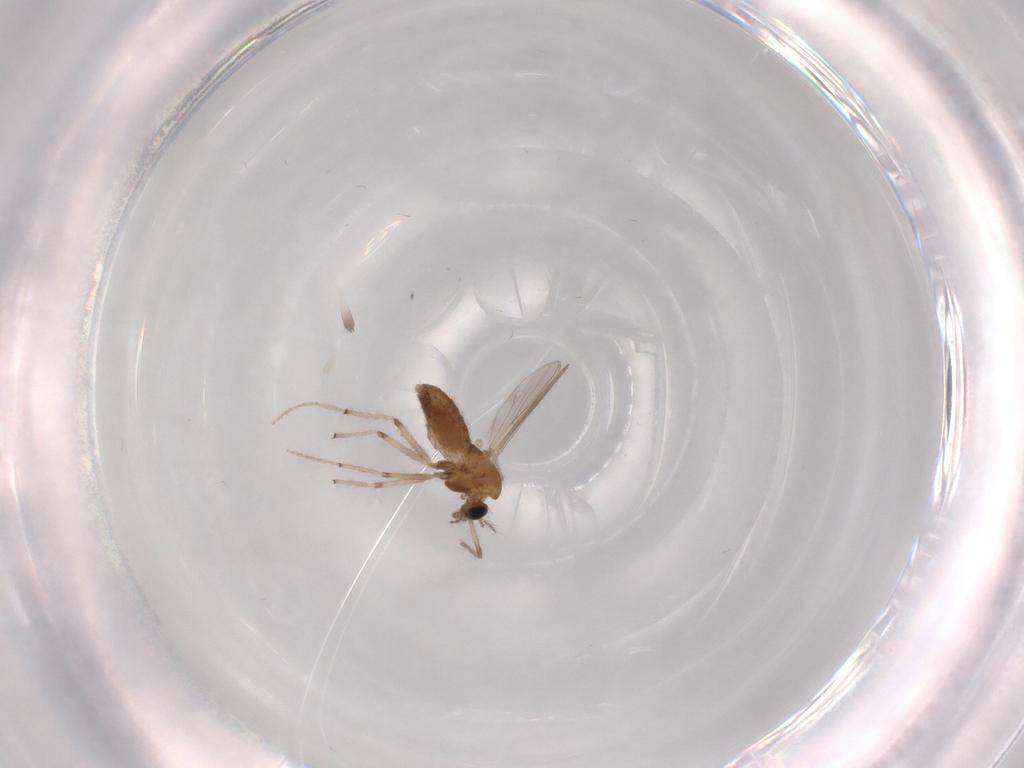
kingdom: Animalia
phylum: Arthropoda
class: Insecta
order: Diptera
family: Chironomidae
